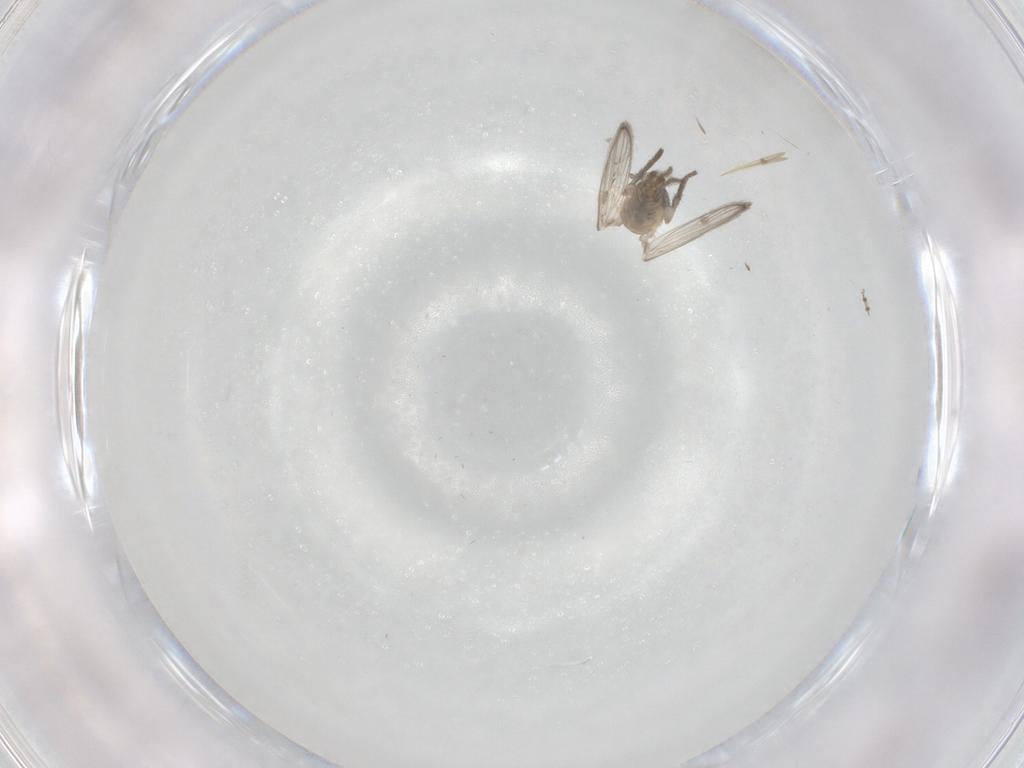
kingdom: Animalia
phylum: Arthropoda
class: Insecta
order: Diptera
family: Psychodidae
